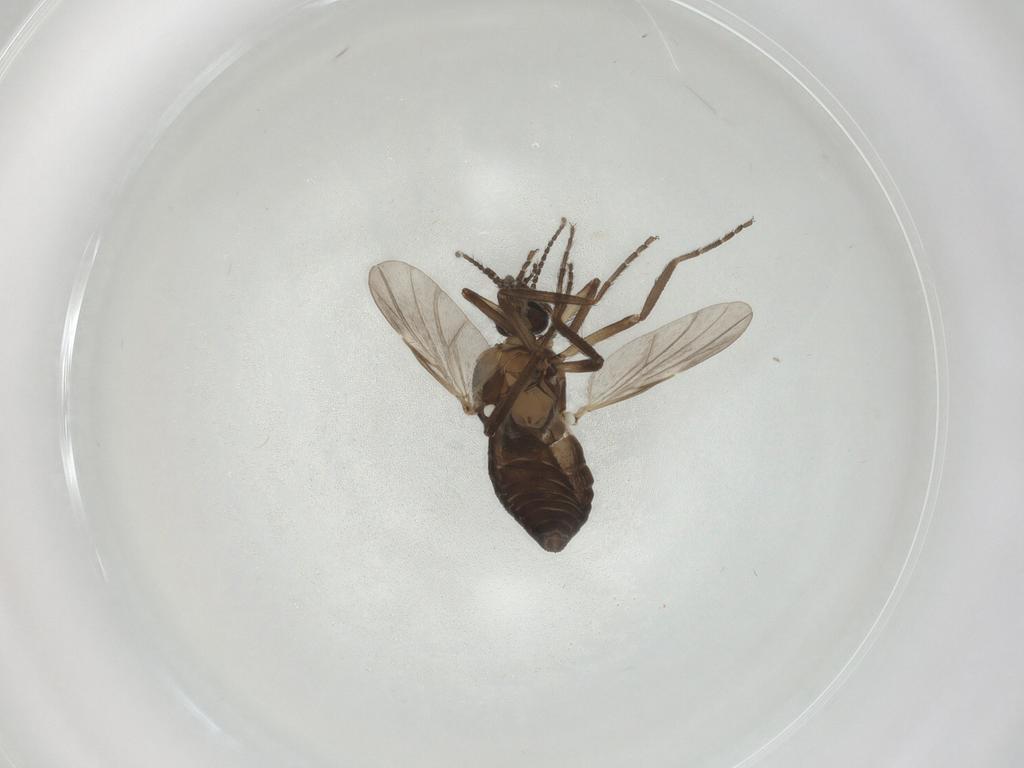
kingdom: Animalia
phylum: Arthropoda
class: Insecta
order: Diptera
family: Ceratopogonidae
